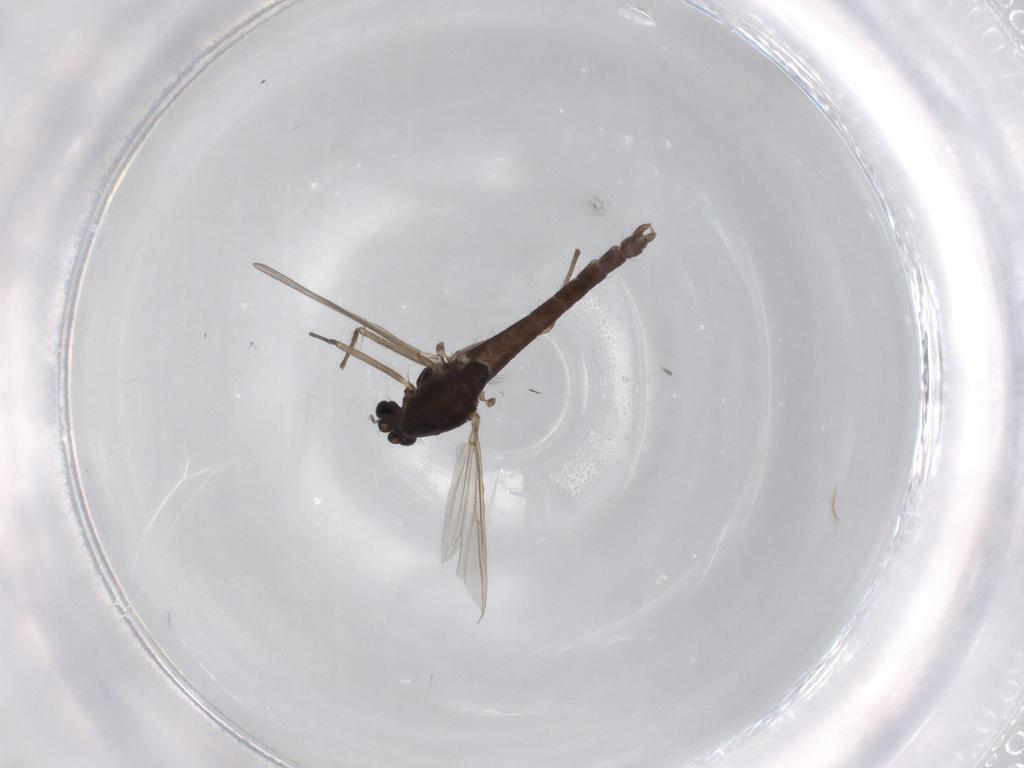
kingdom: Animalia
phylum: Arthropoda
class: Insecta
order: Diptera
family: Chironomidae
